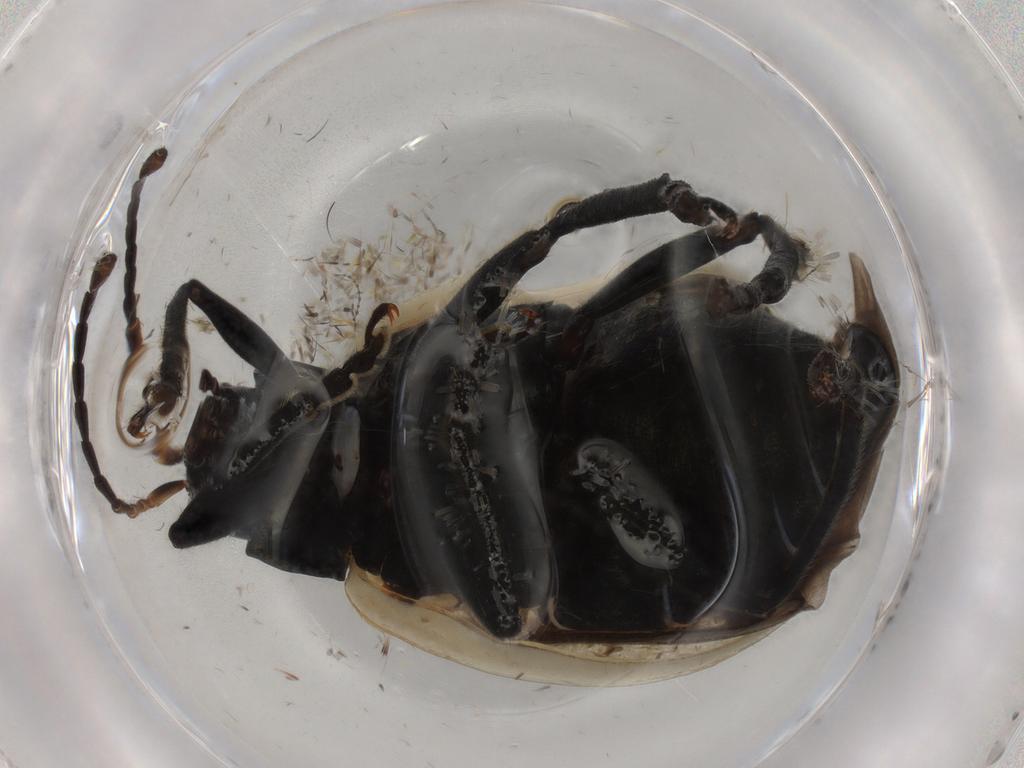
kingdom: Animalia
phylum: Arthropoda
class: Insecta
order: Coleoptera
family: Chrysomelidae
